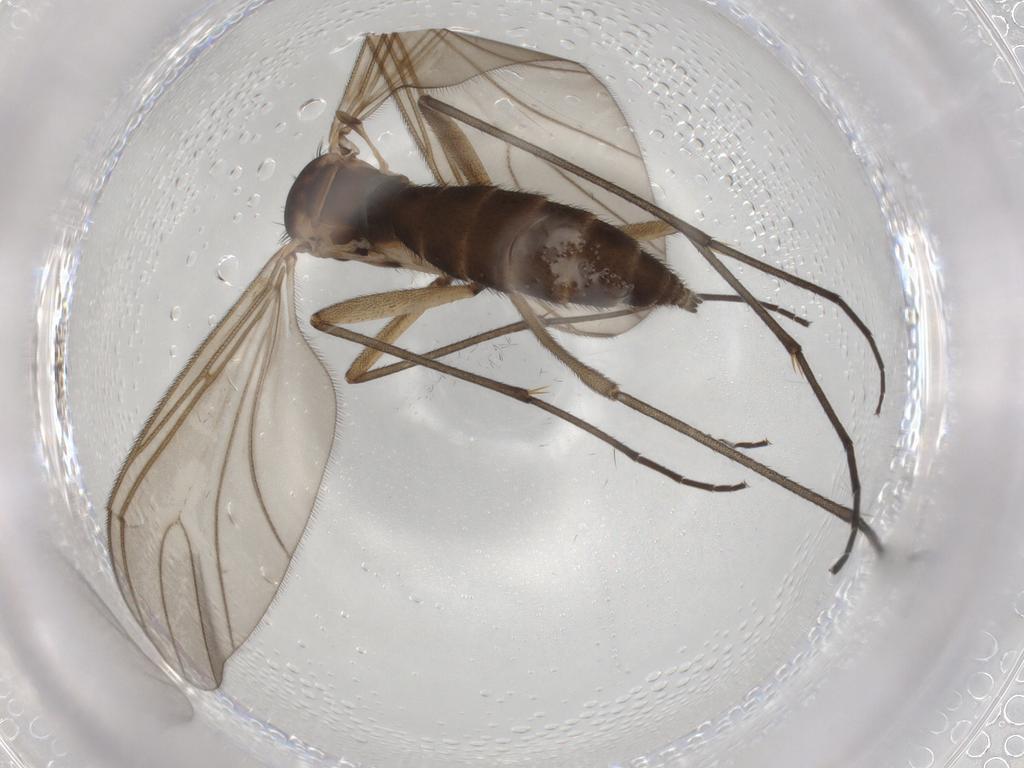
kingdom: Animalia
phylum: Arthropoda
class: Insecta
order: Diptera
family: Sciaridae
